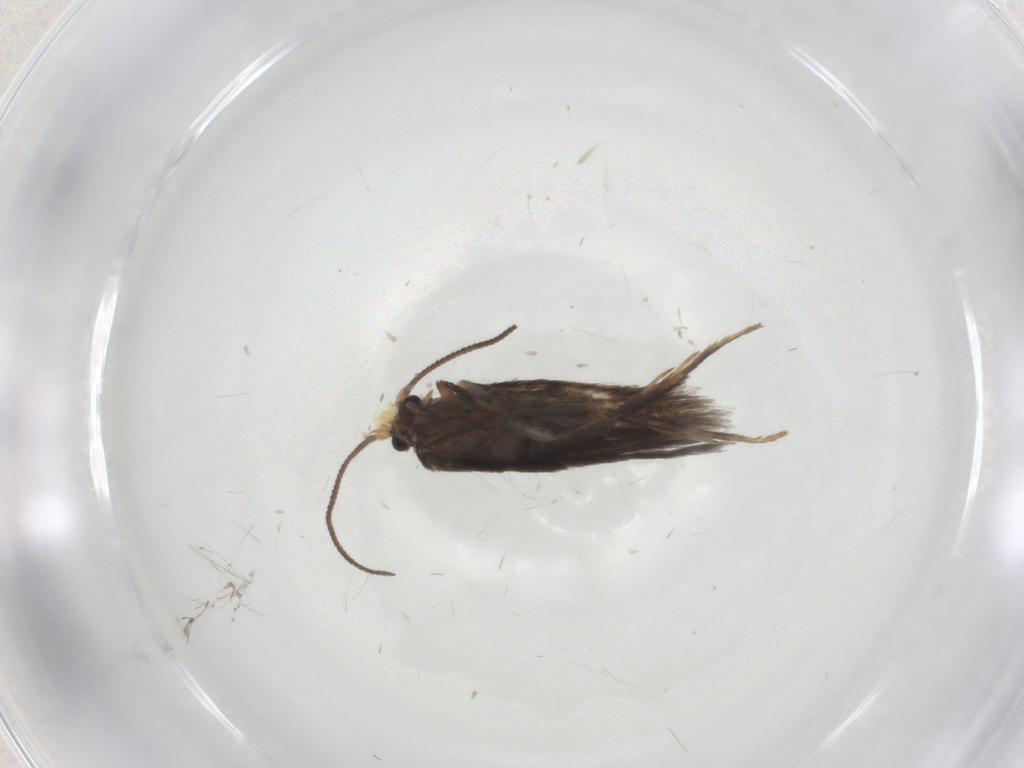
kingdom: Animalia
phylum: Arthropoda
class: Insecta
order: Lepidoptera
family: Nepticulidae
